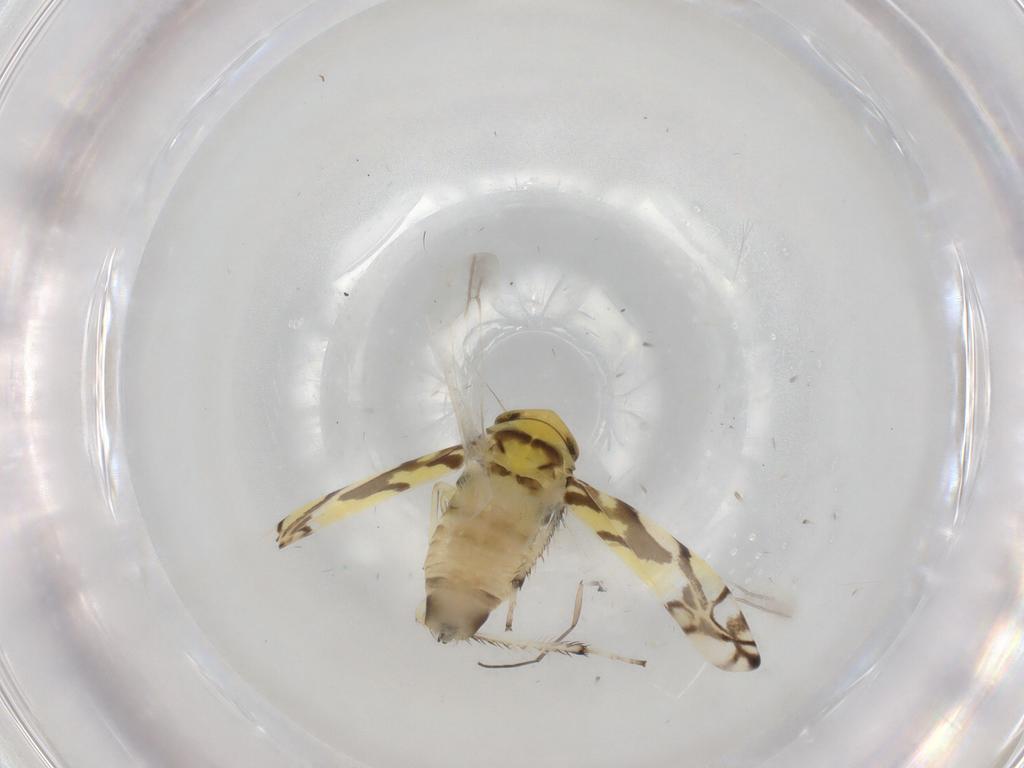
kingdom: Animalia
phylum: Arthropoda
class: Insecta
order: Hemiptera
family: Cicadellidae
